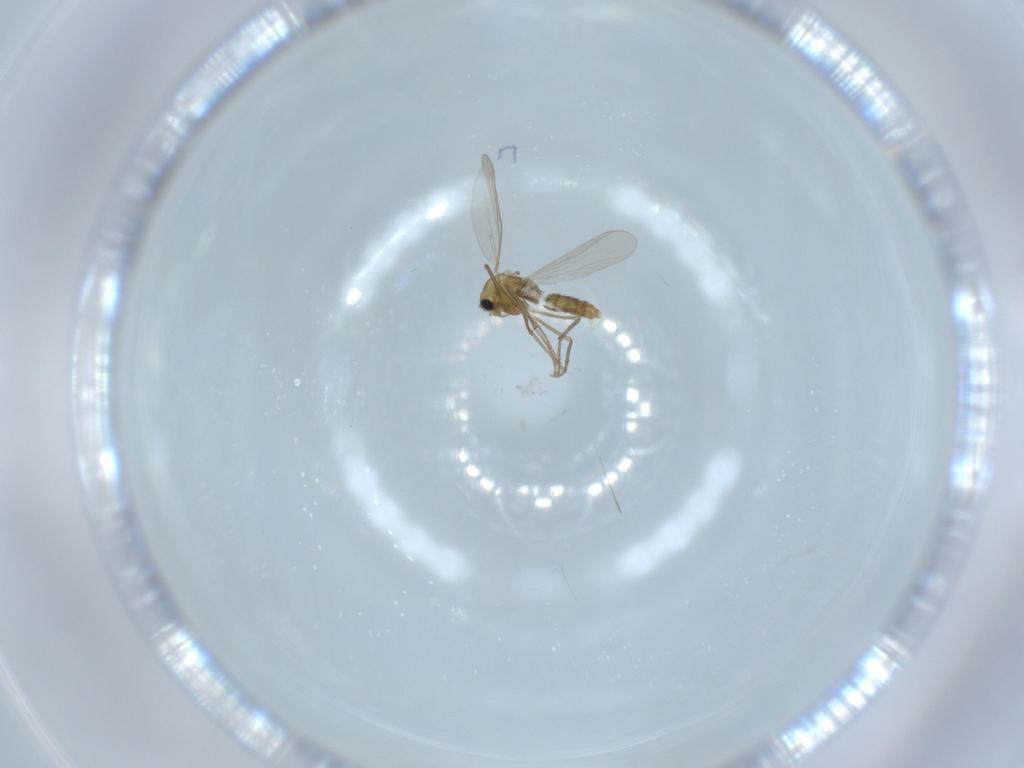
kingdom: Animalia
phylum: Arthropoda
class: Insecta
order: Diptera
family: Chironomidae
